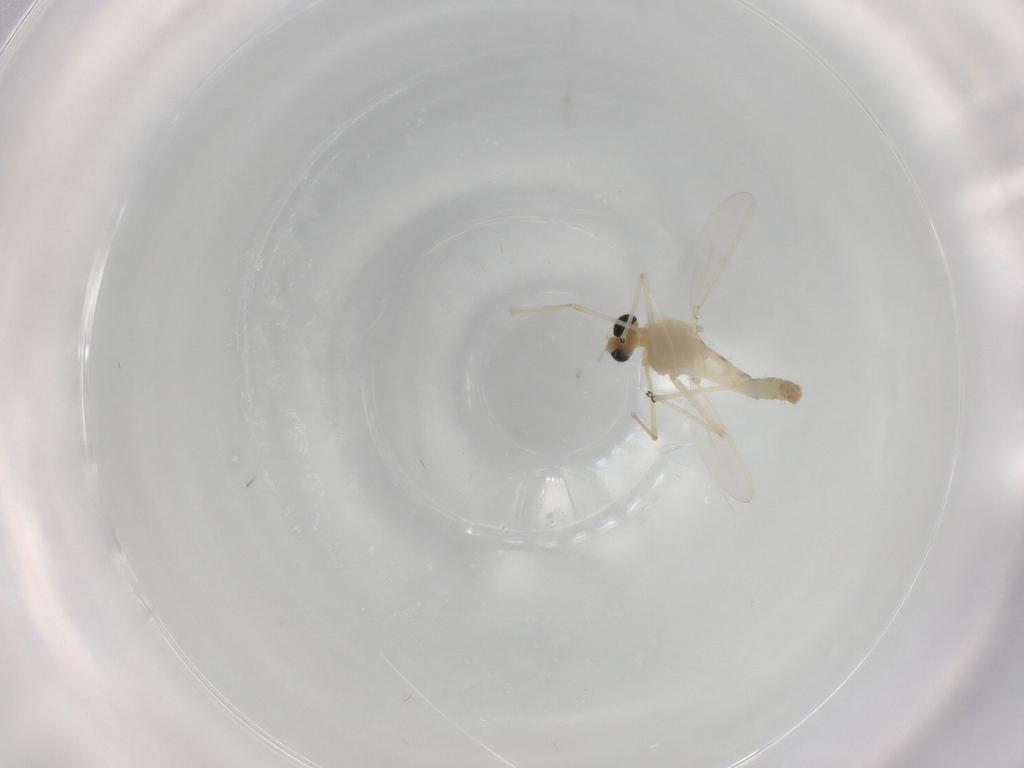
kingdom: Animalia
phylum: Arthropoda
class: Insecta
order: Diptera
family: Chironomidae
